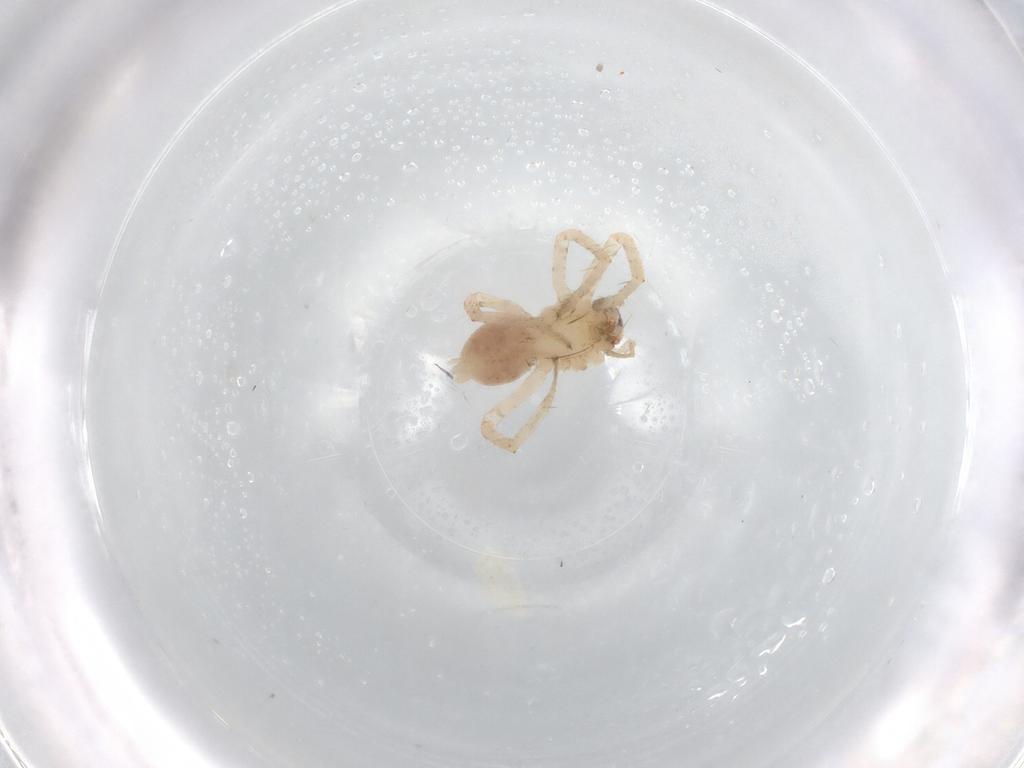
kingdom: Animalia
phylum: Arthropoda
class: Arachnida
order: Araneae
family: Anyphaenidae
